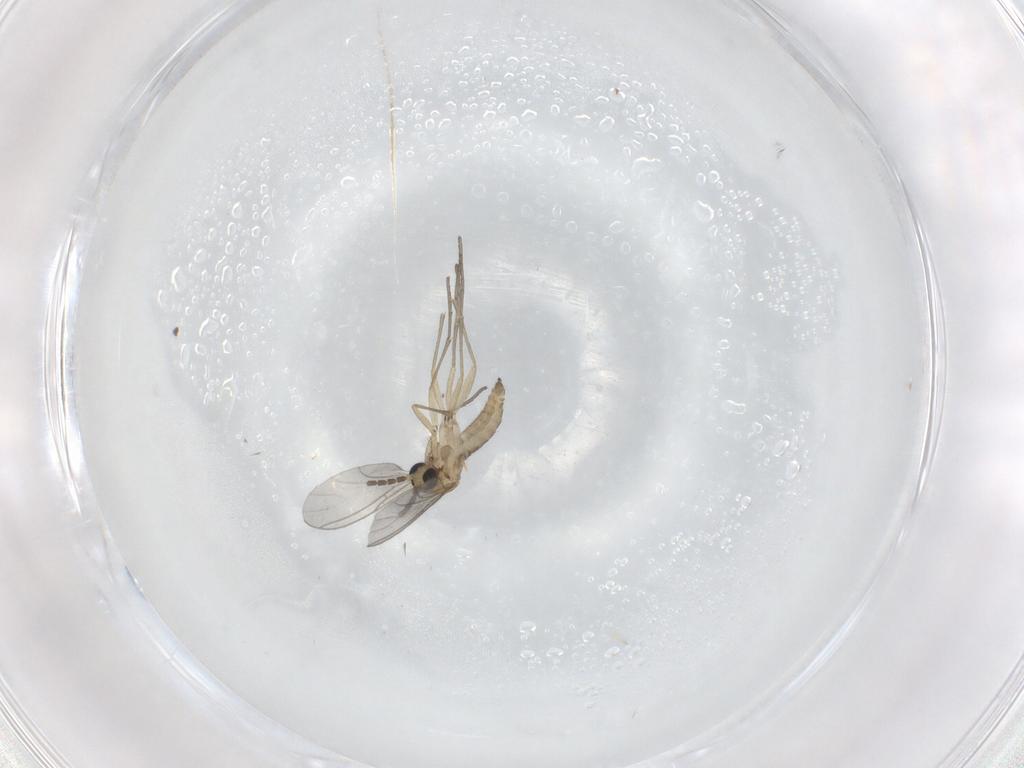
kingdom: Animalia
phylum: Arthropoda
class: Insecta
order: Diptera
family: Sciaridae
